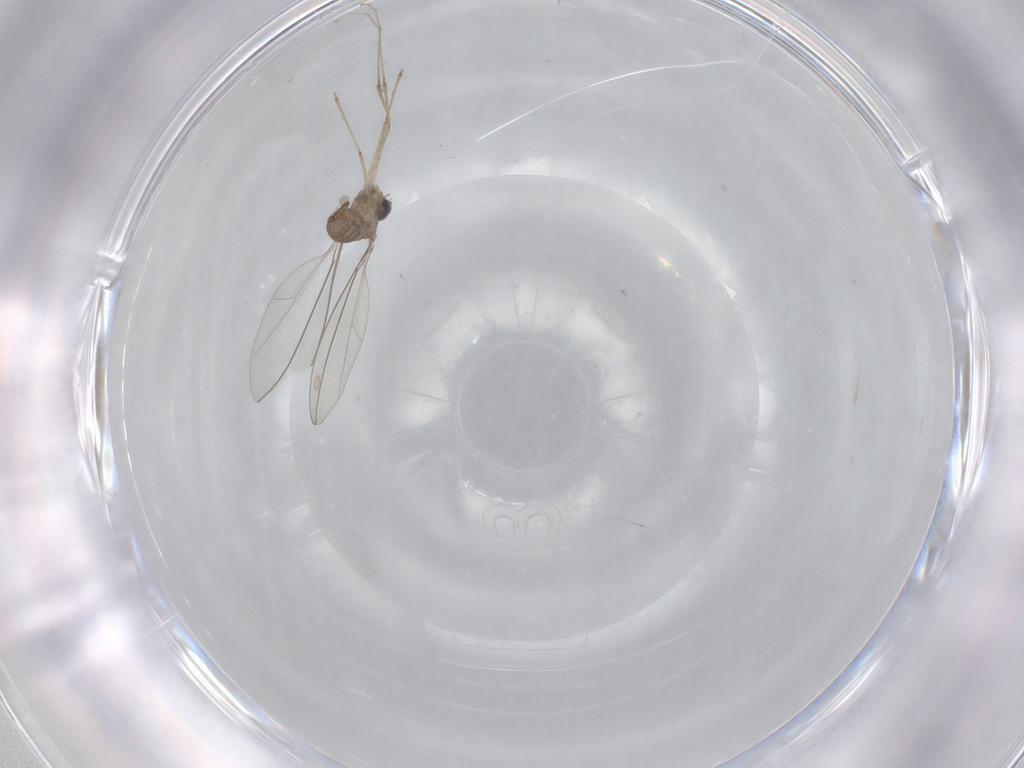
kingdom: Animalia
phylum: Arthropoda
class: Insecta
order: Diptera
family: Cecidomyiidae
